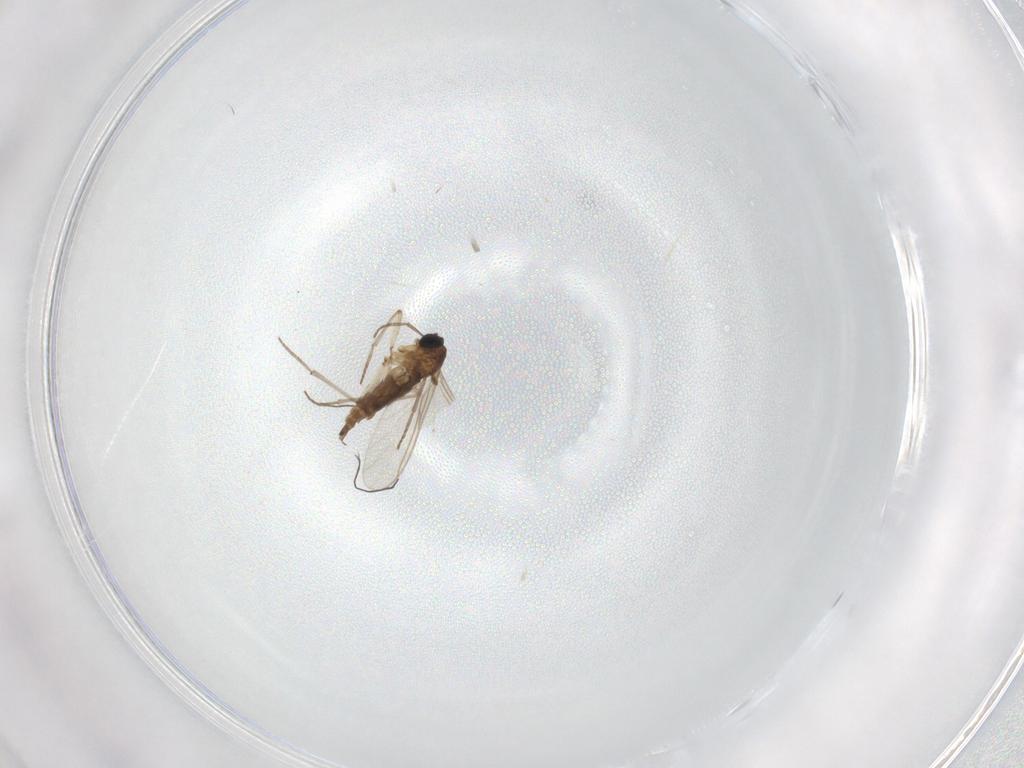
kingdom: Animalia
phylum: Arthropoda
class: Insecta
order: Diptera
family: Sciaridae
